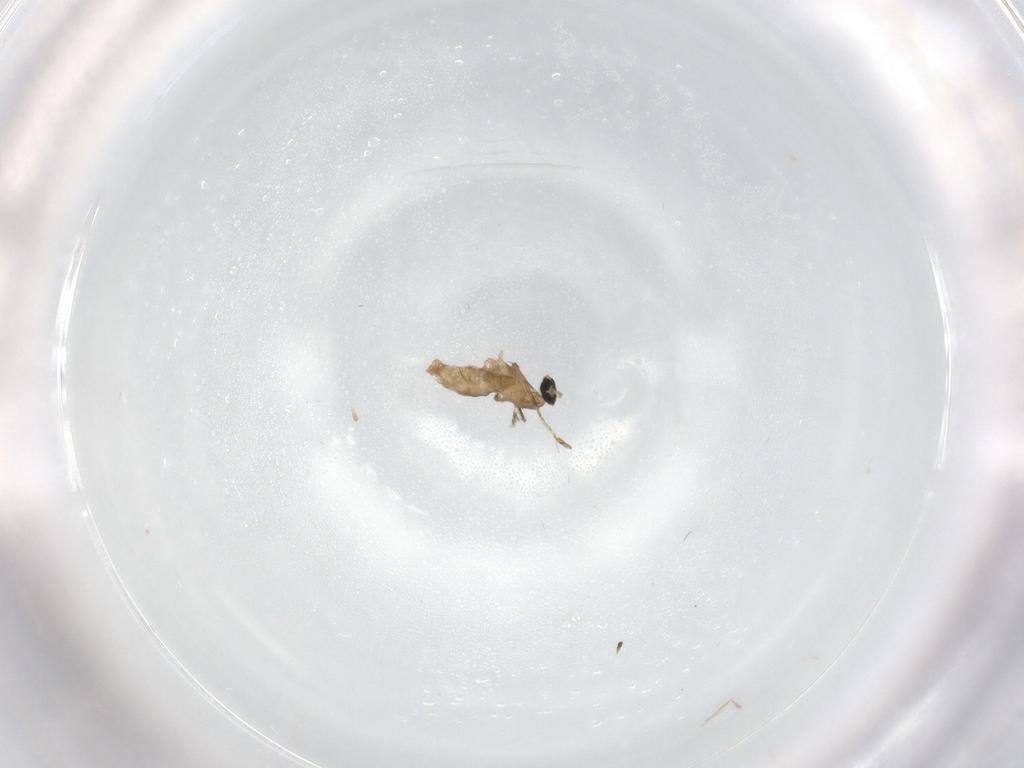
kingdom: Animalia
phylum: Arthropoda
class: Insecta
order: Diptera
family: Cecidomyiidae
